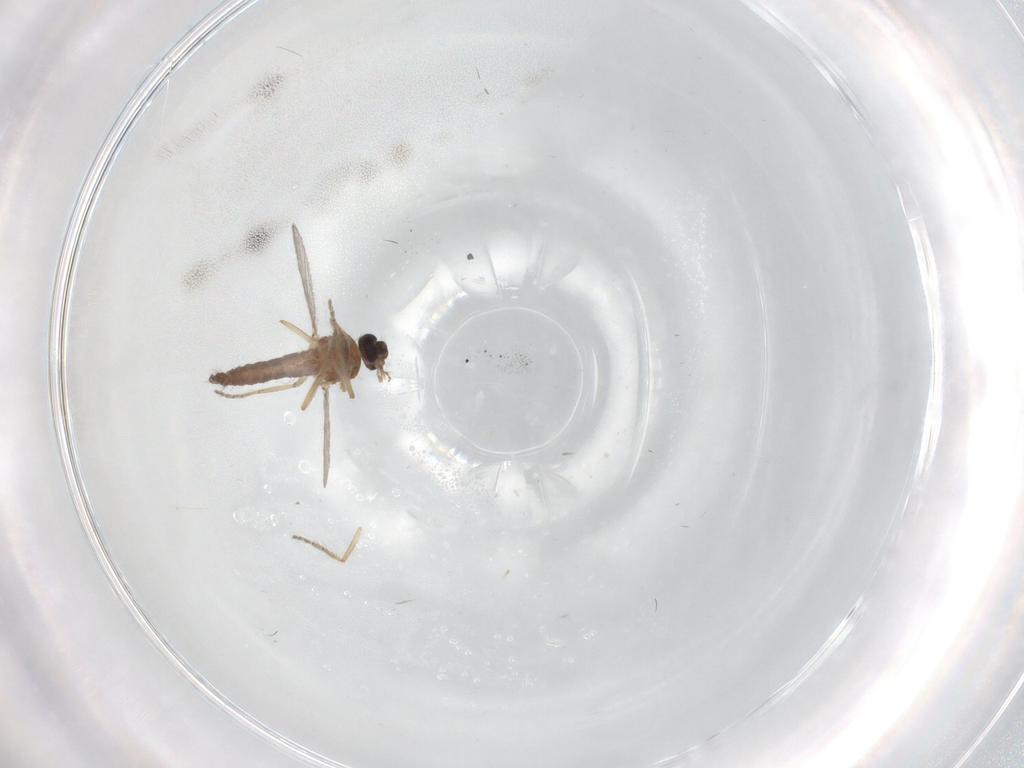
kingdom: Animalia
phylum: Arthropoda
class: Insecta
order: Diptera
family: Ceratopogonidae
